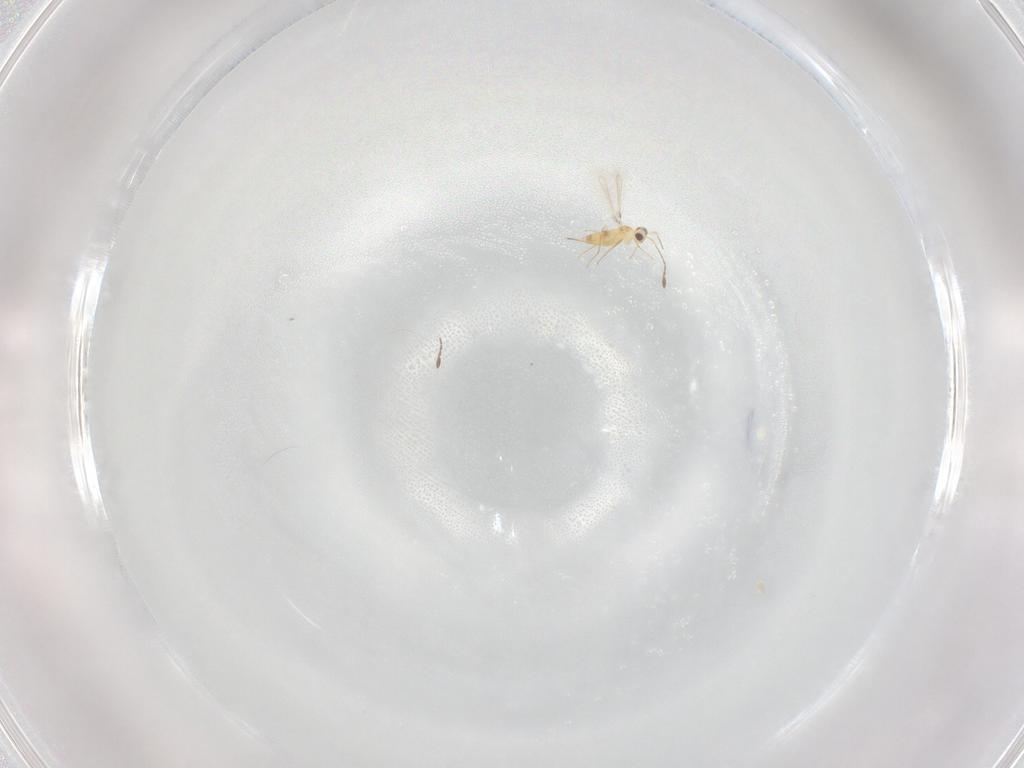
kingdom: Animalia
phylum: Arthropoda
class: Insecta
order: Hymenoptera
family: Mymaridae
